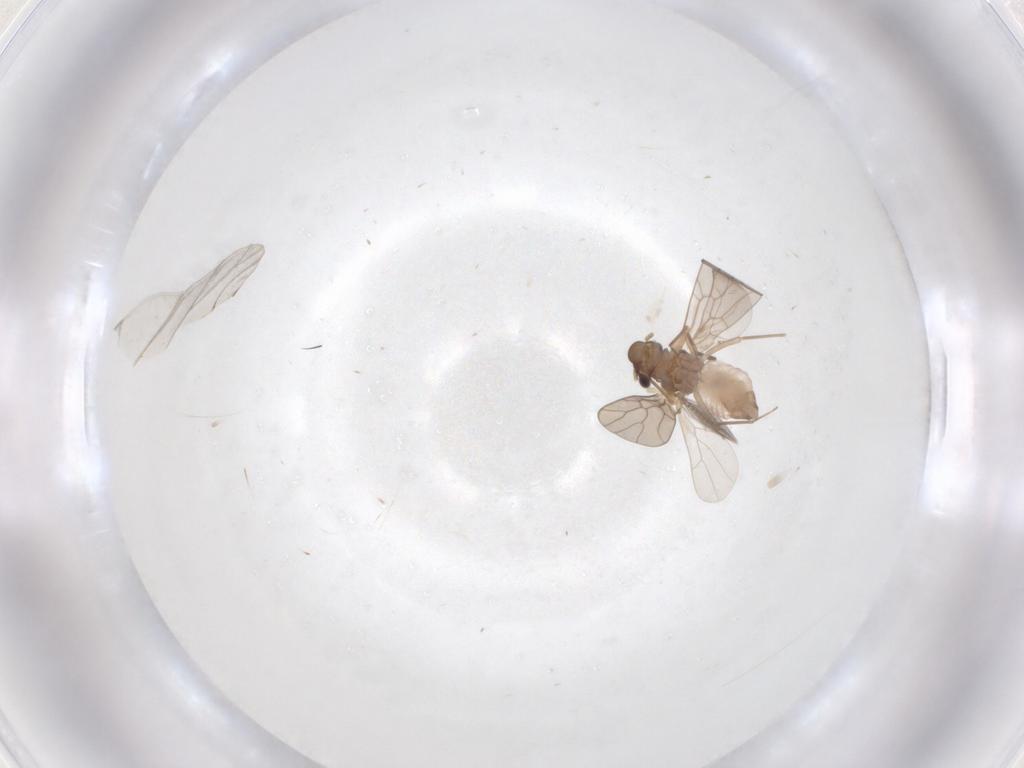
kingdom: Animalia
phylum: Arthropoda
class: Insecta
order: Psocodea
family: Lepidopsocidae
